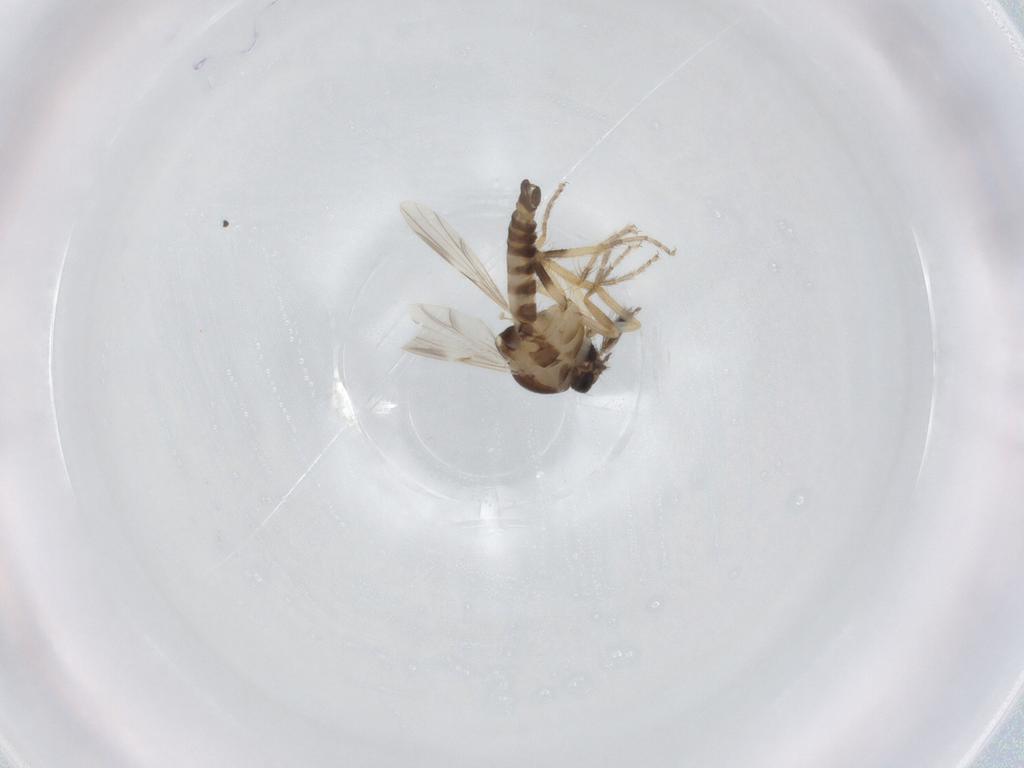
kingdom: Animalia
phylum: Arthropoda
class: Insecta
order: Diptera
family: Ceratopogonidae
